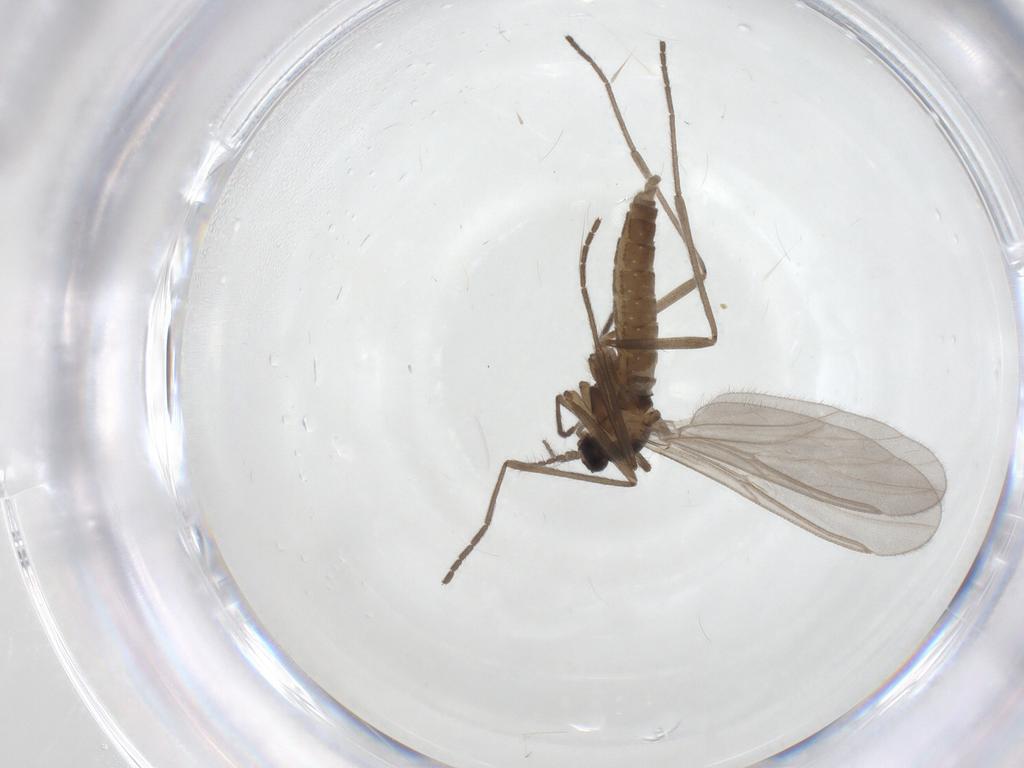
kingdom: Animalia
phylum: Arthropoda
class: Insecta
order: Diptera
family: Cecidomyiidae
